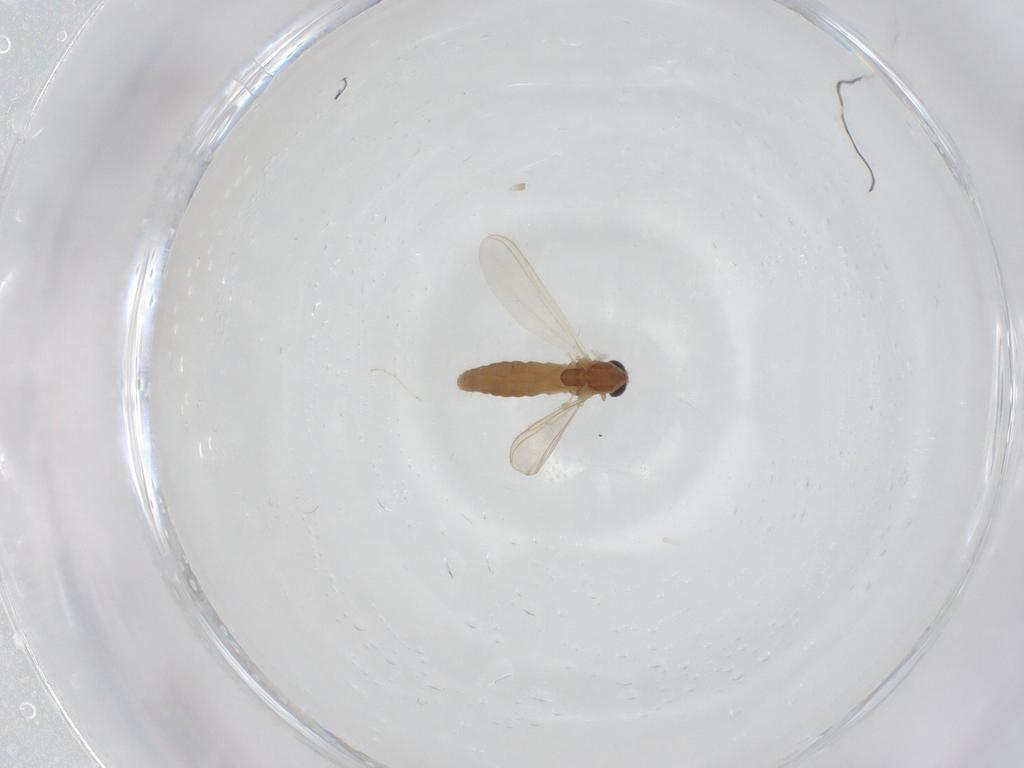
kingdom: Animalia
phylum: Arthropoda
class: Insecta
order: Diptera
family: Chironomidae
